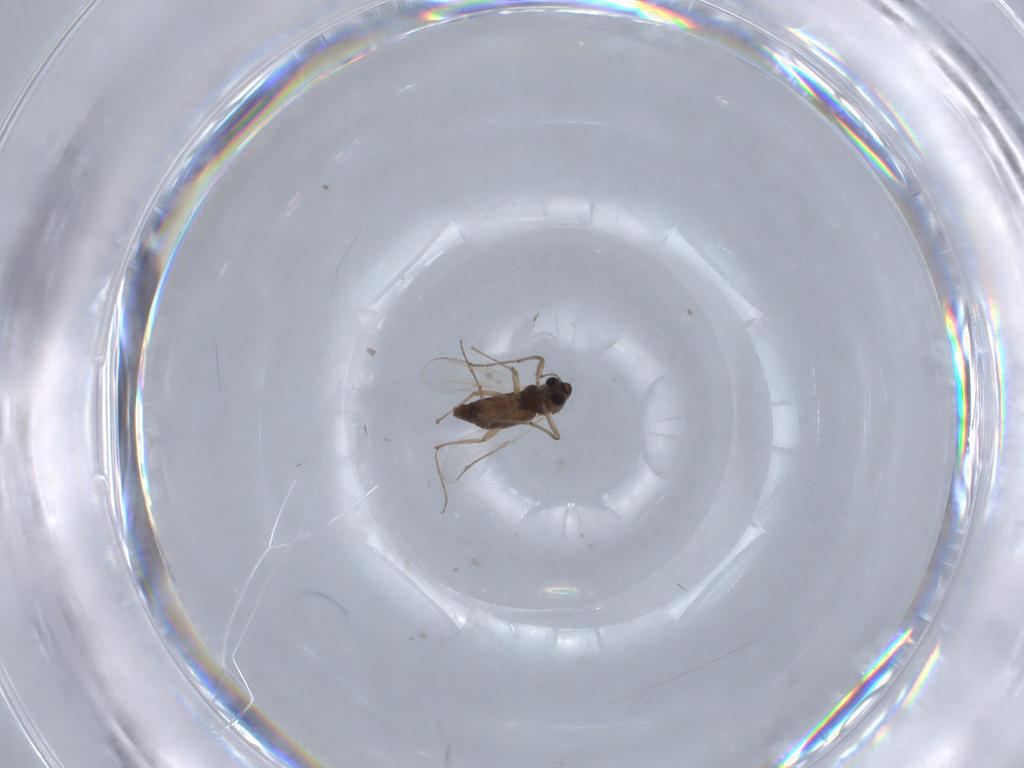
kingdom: Animalia
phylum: Arthropoda
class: Insecta
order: Diptera
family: Chironomidae
